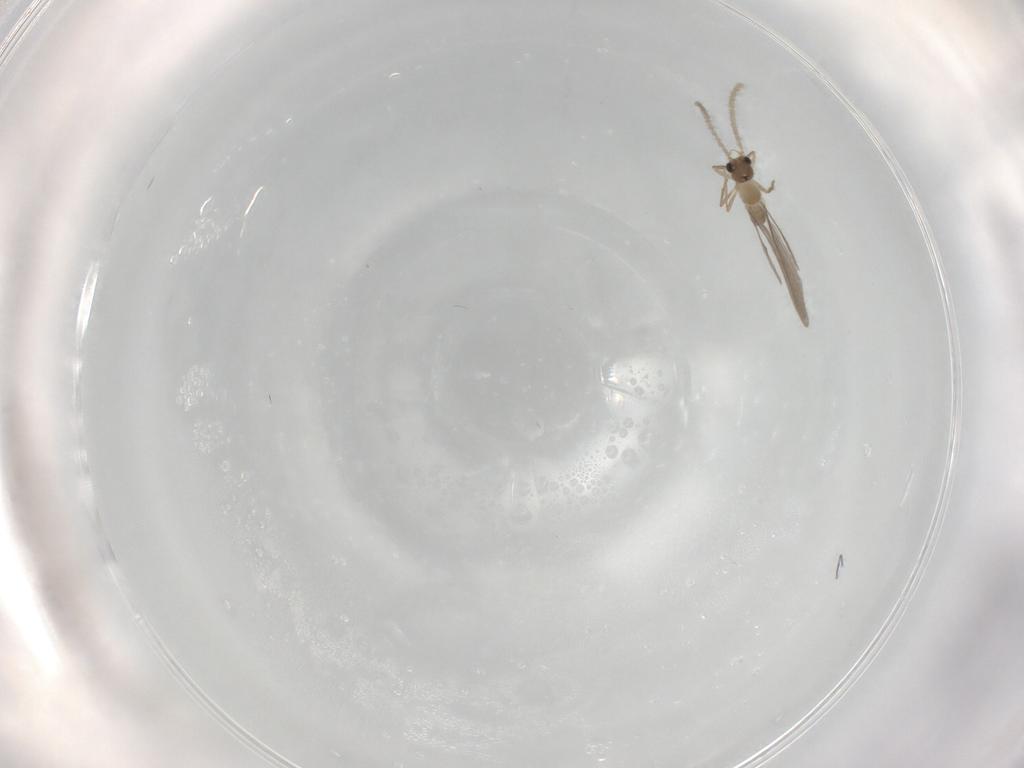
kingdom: Animalia
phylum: Arthropoda
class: Insecta
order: Hymenoptera
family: Formicidae
